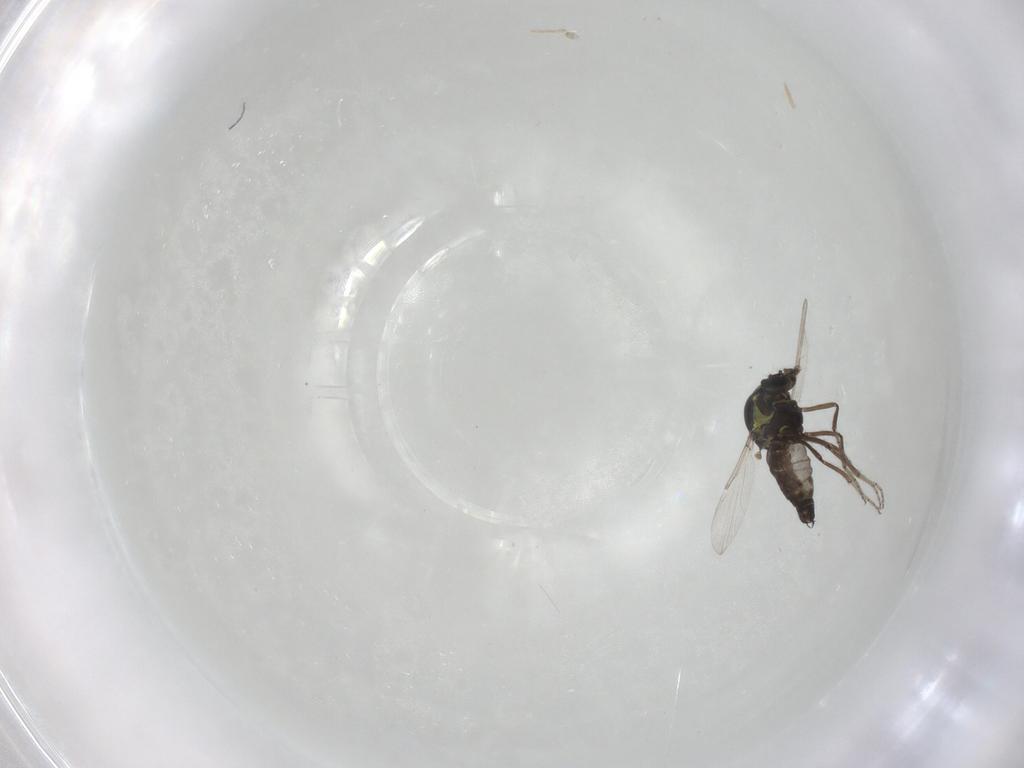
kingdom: Animalia
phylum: Arthropoda
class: Insecta
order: Diptera
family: Ceratopogonidae
